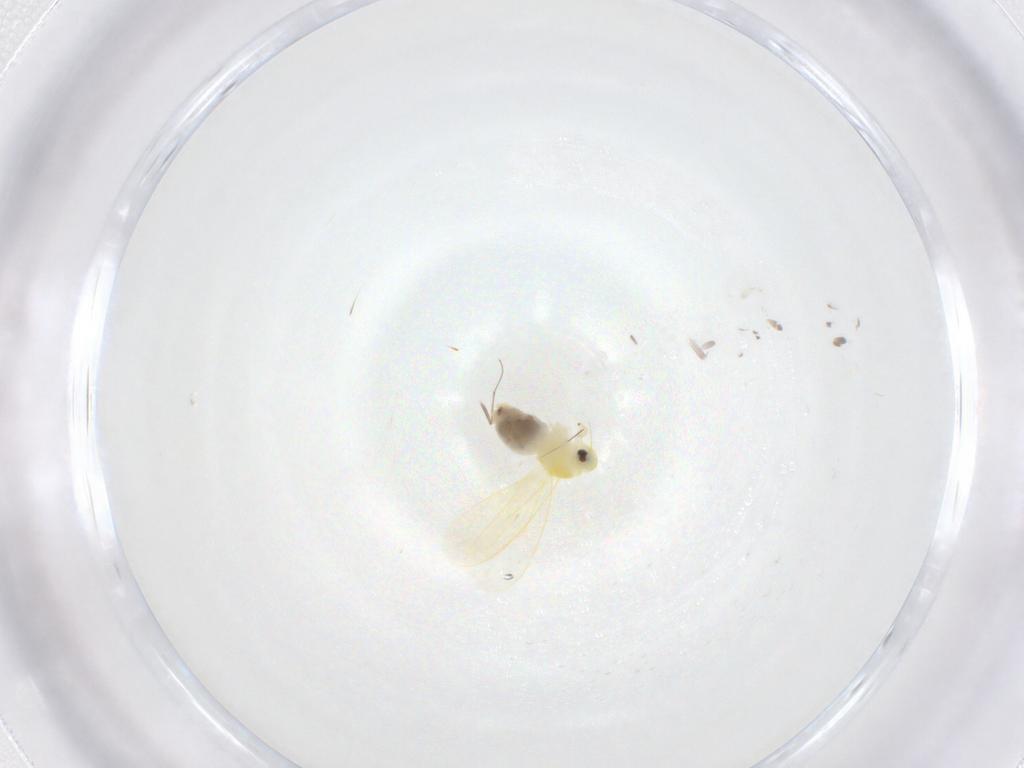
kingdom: Animalia
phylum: Arthropoda
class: Insecta
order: Hemiptera
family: Aleyrodidae
